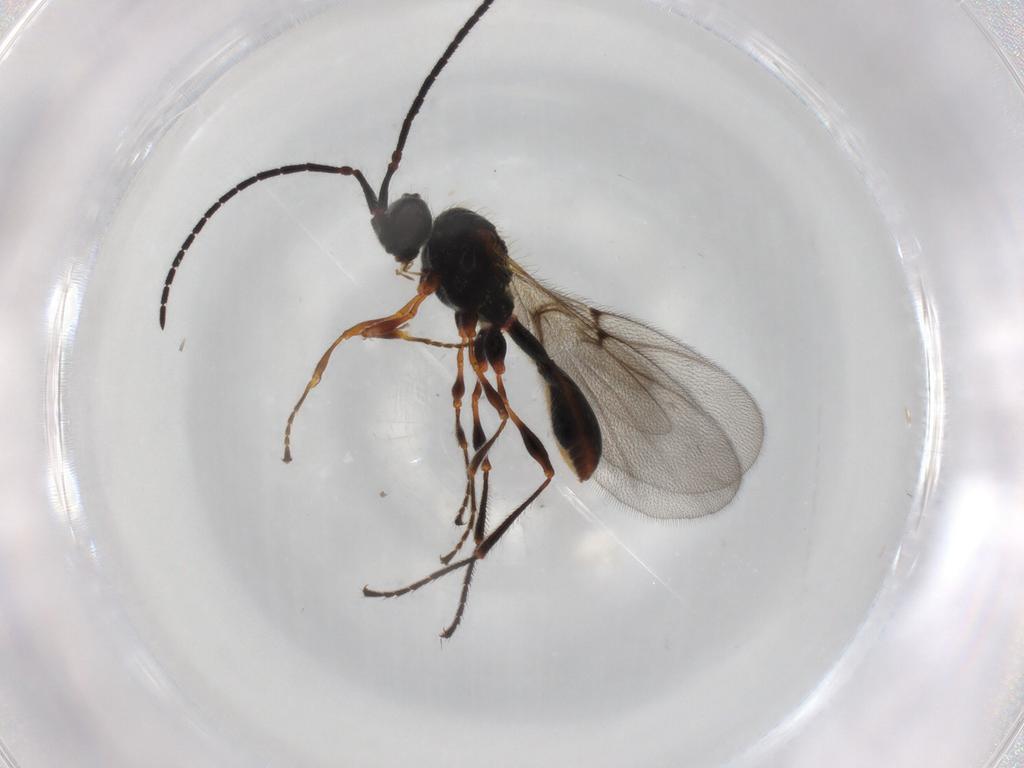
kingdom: Animalia
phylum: Arthropoda
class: Insecta
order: Hymenoptera
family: Diapriidae
